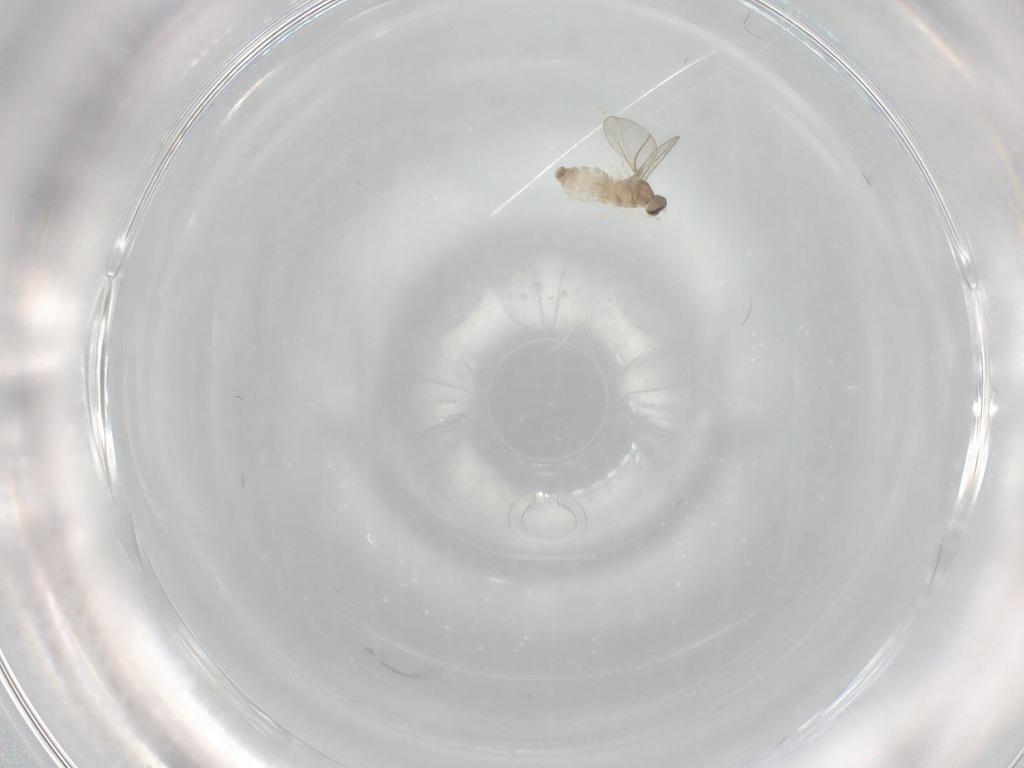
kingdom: Animalia
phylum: Arthropoda
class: Insecta
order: Diptera
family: Cecidomyiidae
